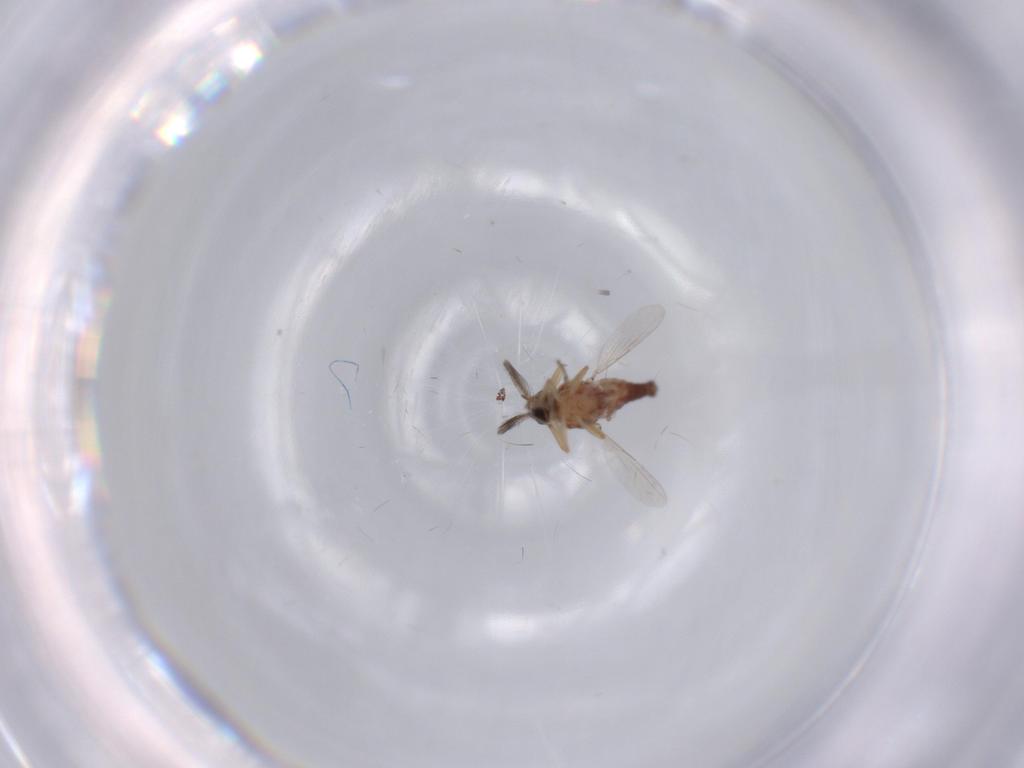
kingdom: Animalia
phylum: Arthropoda
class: Insecta
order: Diptera
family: Ceratopogonidae
